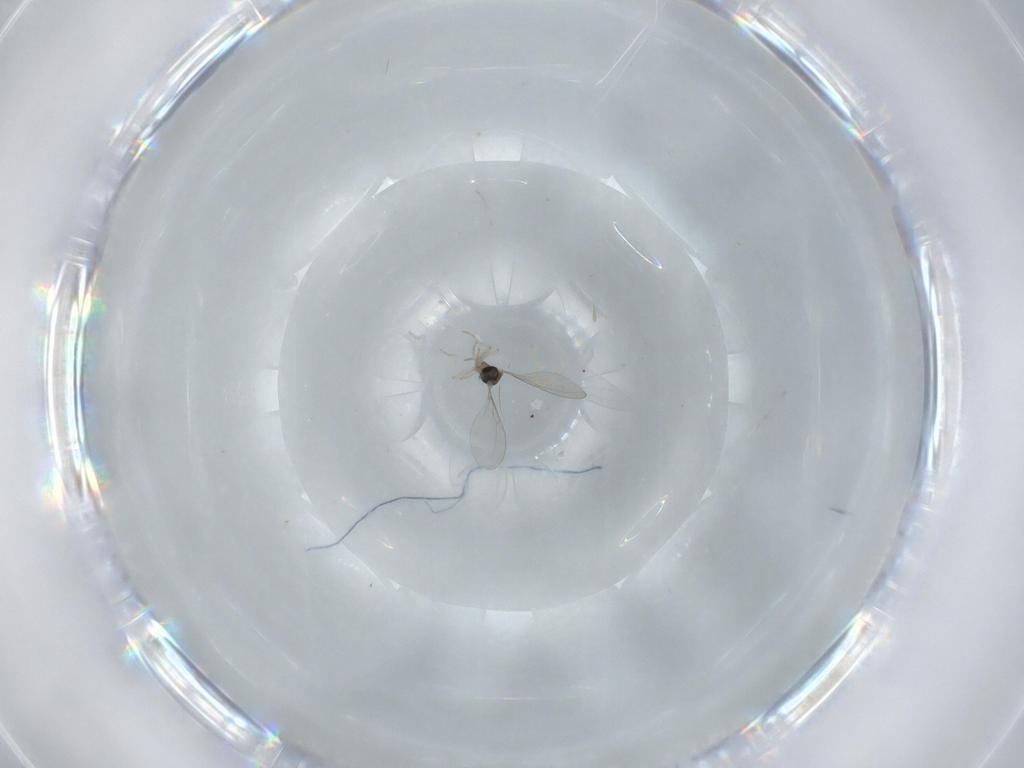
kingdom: Animalia
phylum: Arthropoda
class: Insecta
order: Diptera
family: Cecidomyiidae
